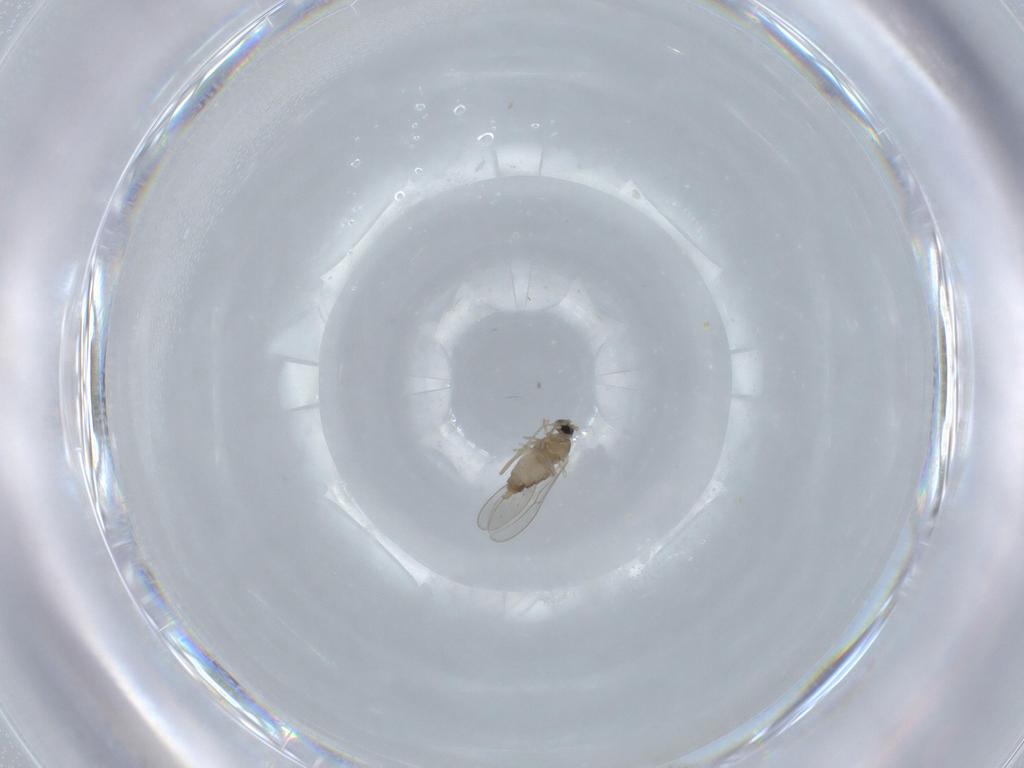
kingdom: Animalia
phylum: Arthropoda
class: Insecta
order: Diptera
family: Cecidomyiidae
